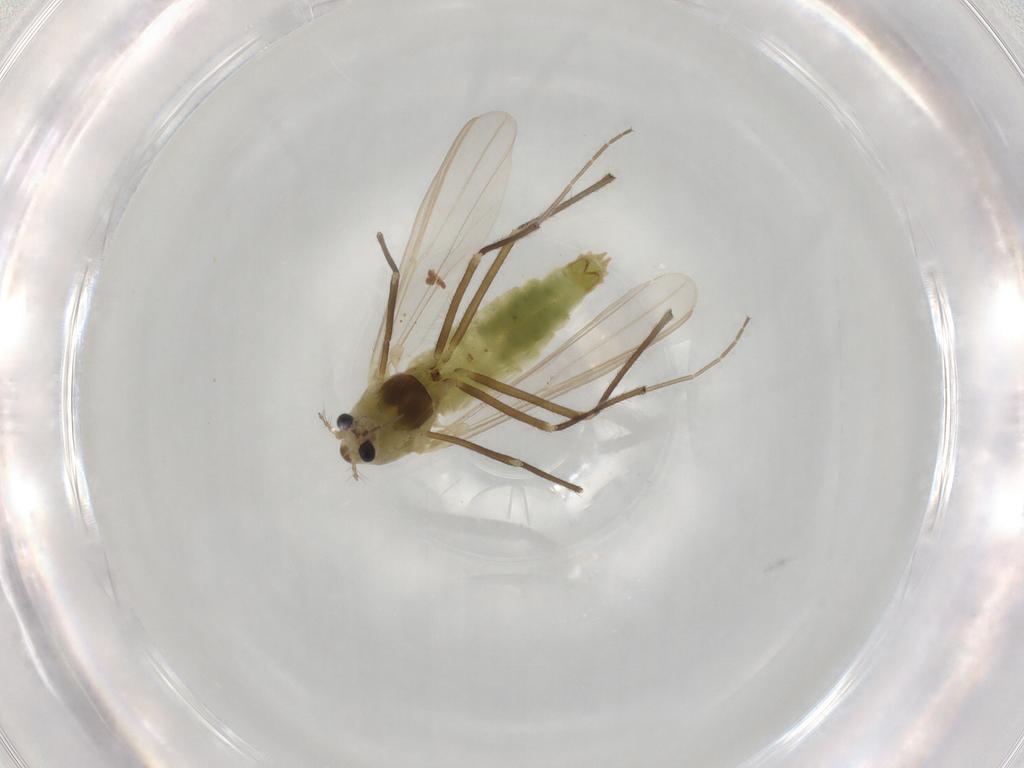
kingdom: Animalia
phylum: Arthropoda
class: Insecta
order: Diptera
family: Chironomidae
